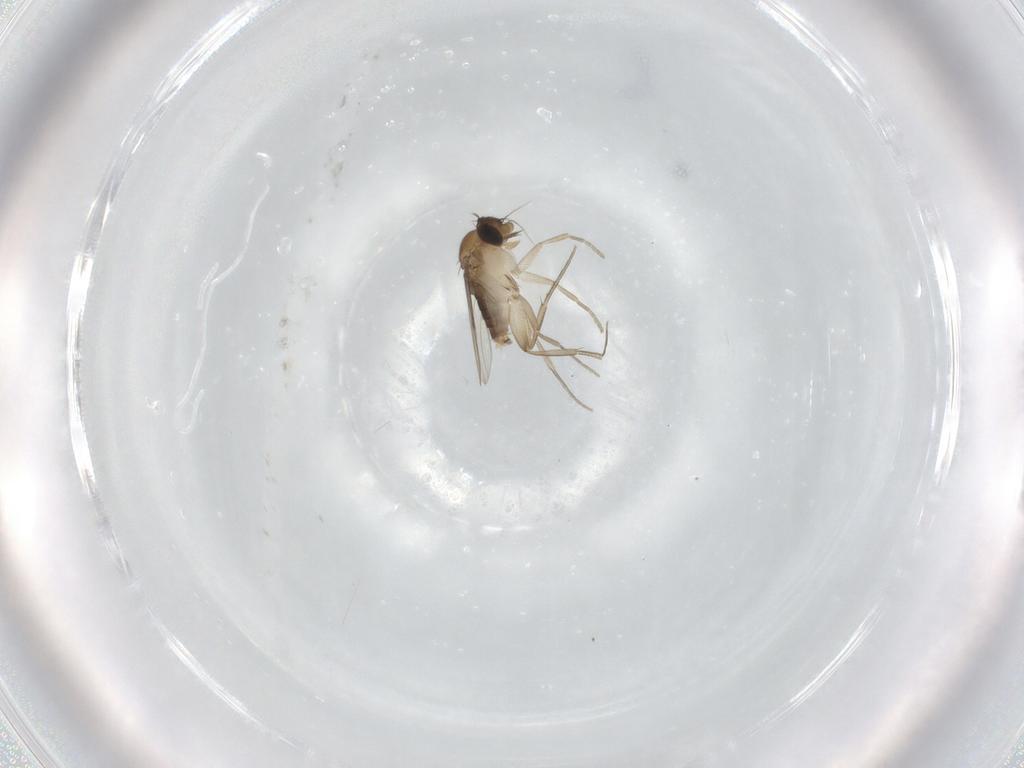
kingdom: Animalia
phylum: Arthropoda
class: Insecta
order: Diptera
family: Phoridae
